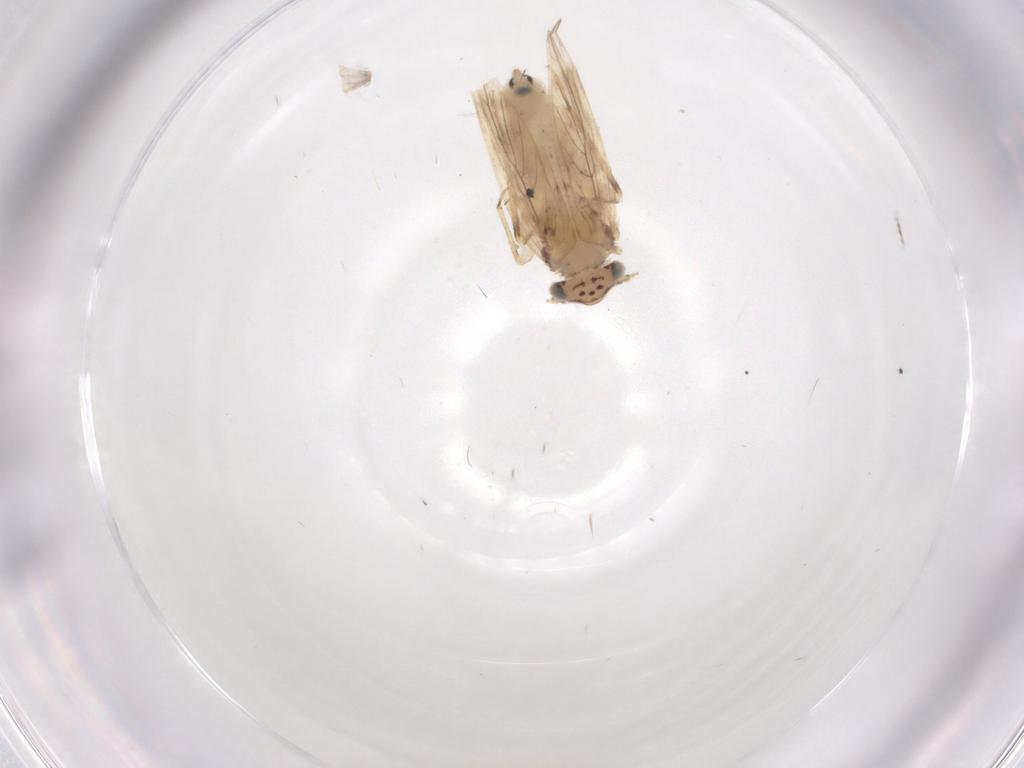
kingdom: Animalia
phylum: Arthropoda
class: Insecta
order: Psocodea
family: Lepidopsocidae
